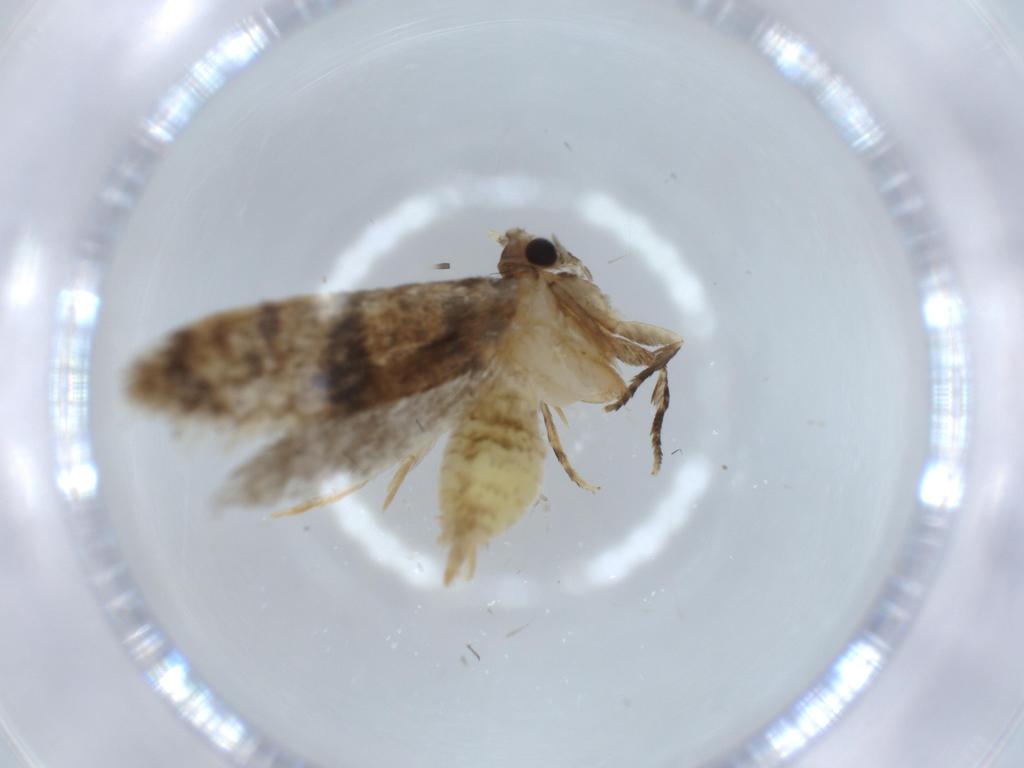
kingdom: Animalia
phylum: Arthropoda
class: Insecta
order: Lepidoptera
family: Tineidae
